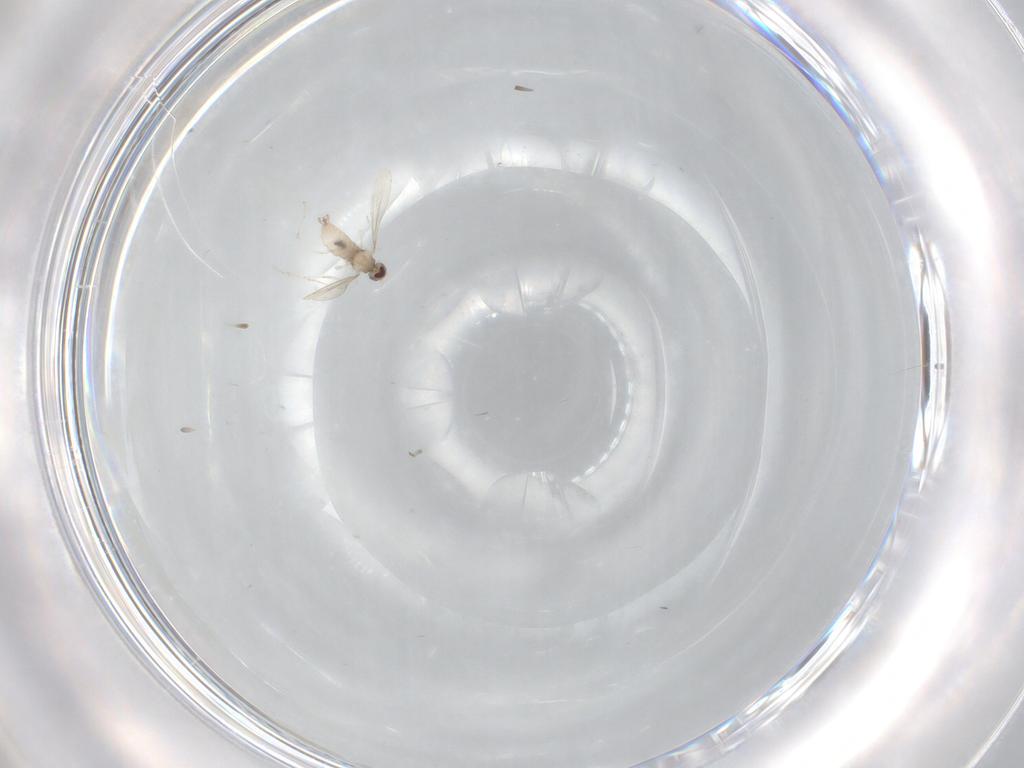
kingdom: Animalia
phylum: Arthropoda
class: Insecta
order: Diptera
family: Cecidomyiidae
